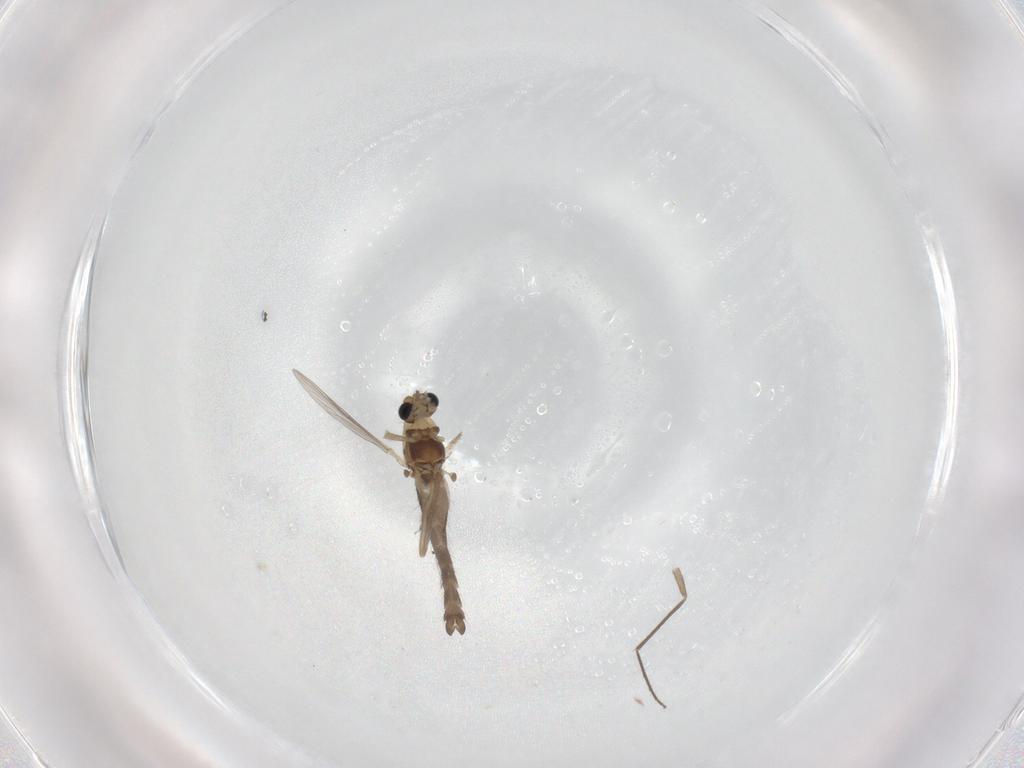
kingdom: Animalia
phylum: Arthropoda
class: Insecta
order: Diptera
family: Chironomidae
